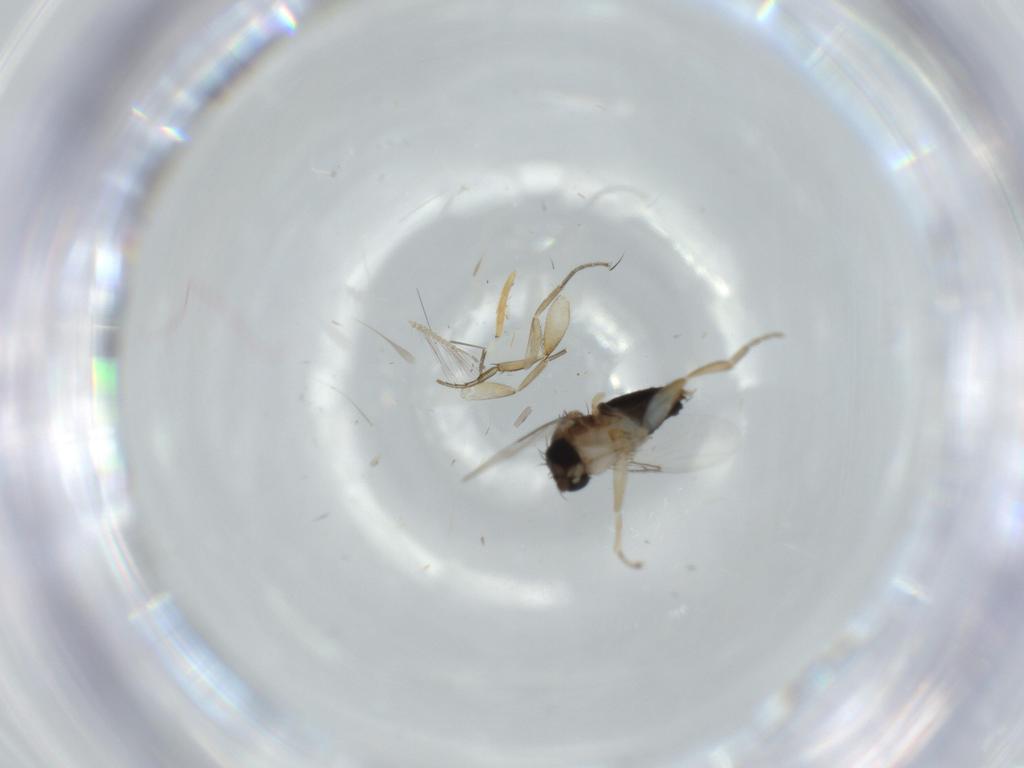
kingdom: Animalia
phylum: Arthropoda
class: Insecta
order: Diptera
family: Phoridae
